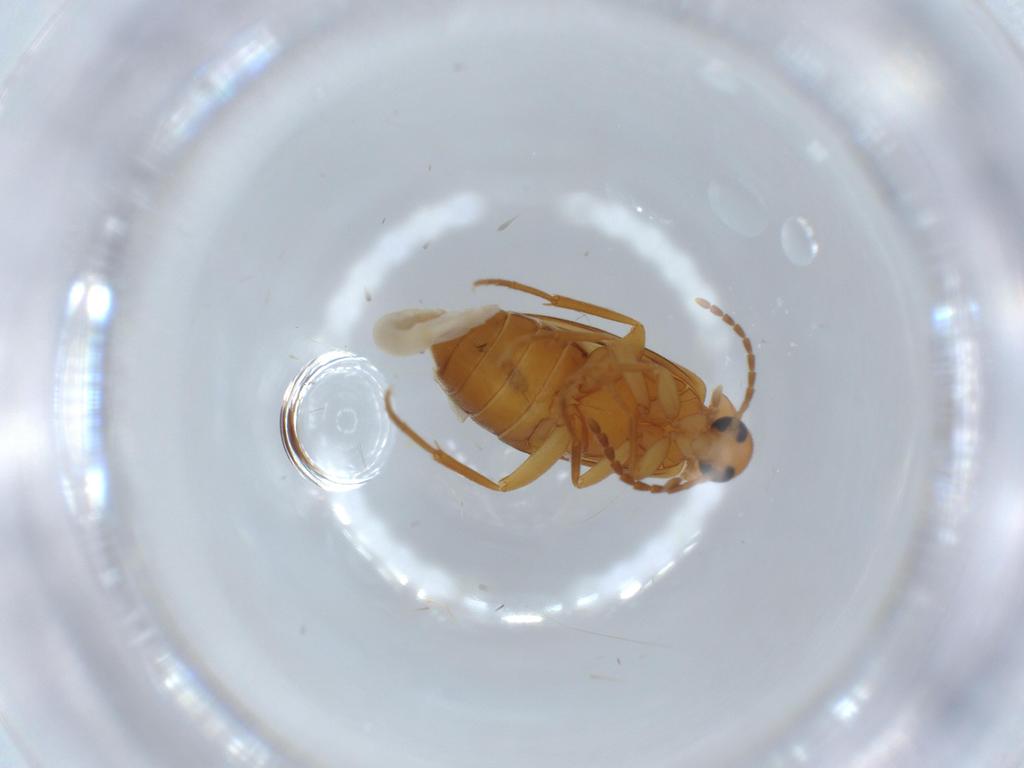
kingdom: Animalia
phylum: Arthropoda
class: Insecta
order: Coleoptera
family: Scraptiidae
